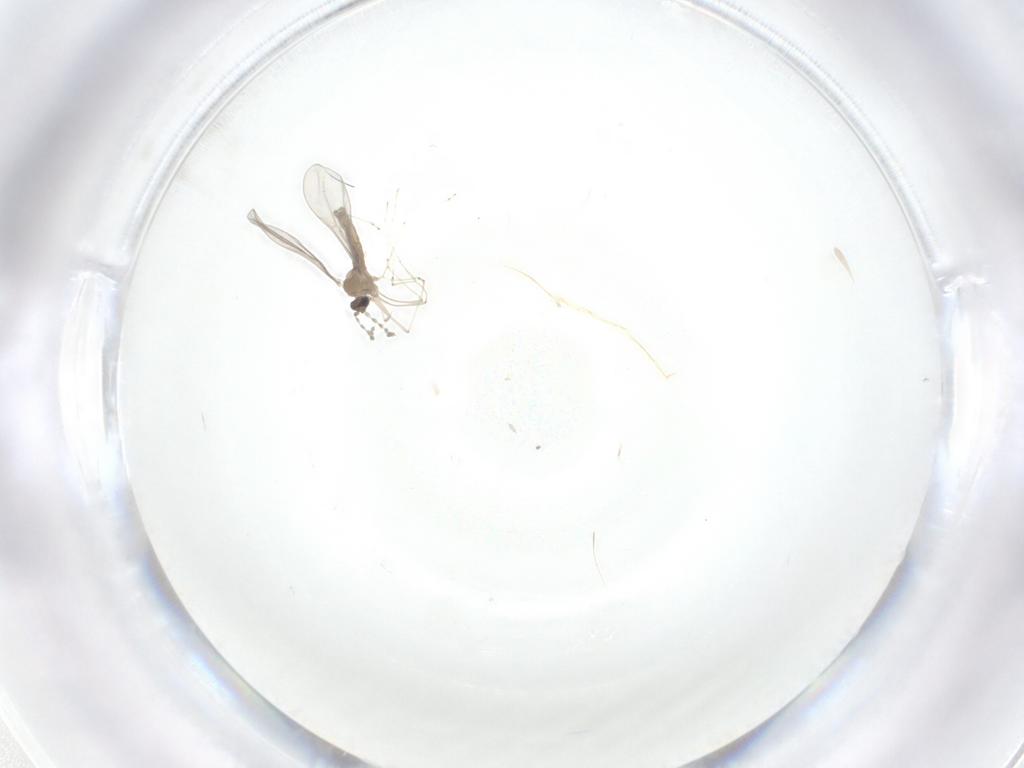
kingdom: Animalia
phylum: Arthropoda
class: Insecta
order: Diptera
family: Cecidomyiidae
